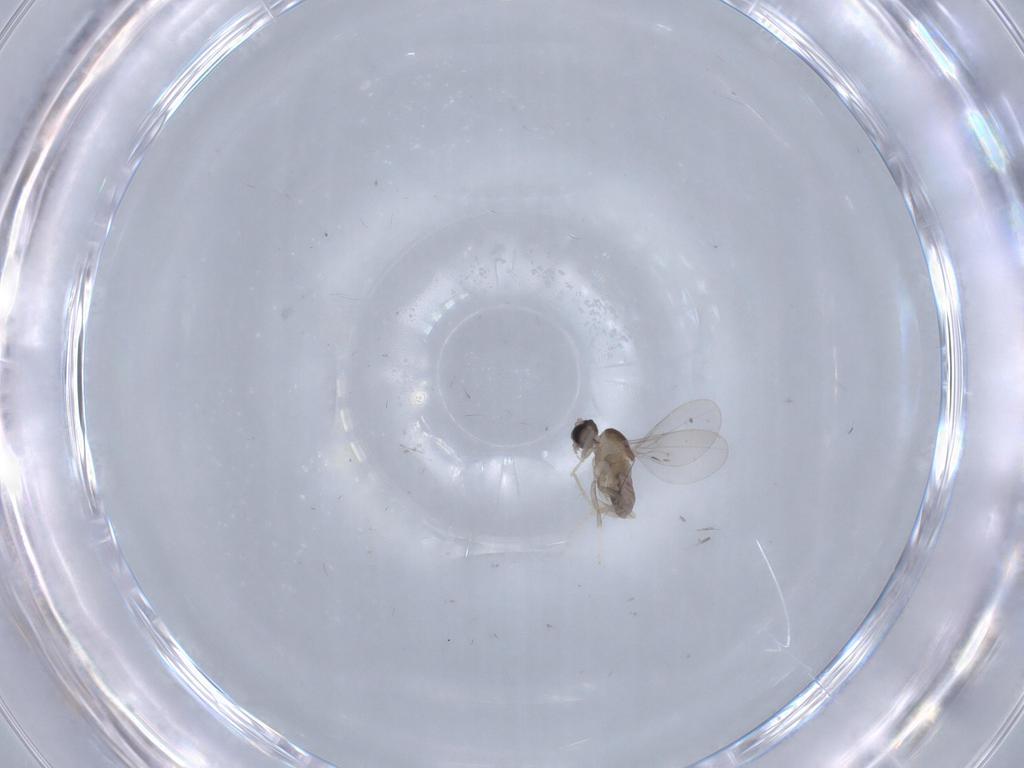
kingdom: Animalia
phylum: Arthropoda
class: Insecta
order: Diptera
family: Cecidomyiidae
